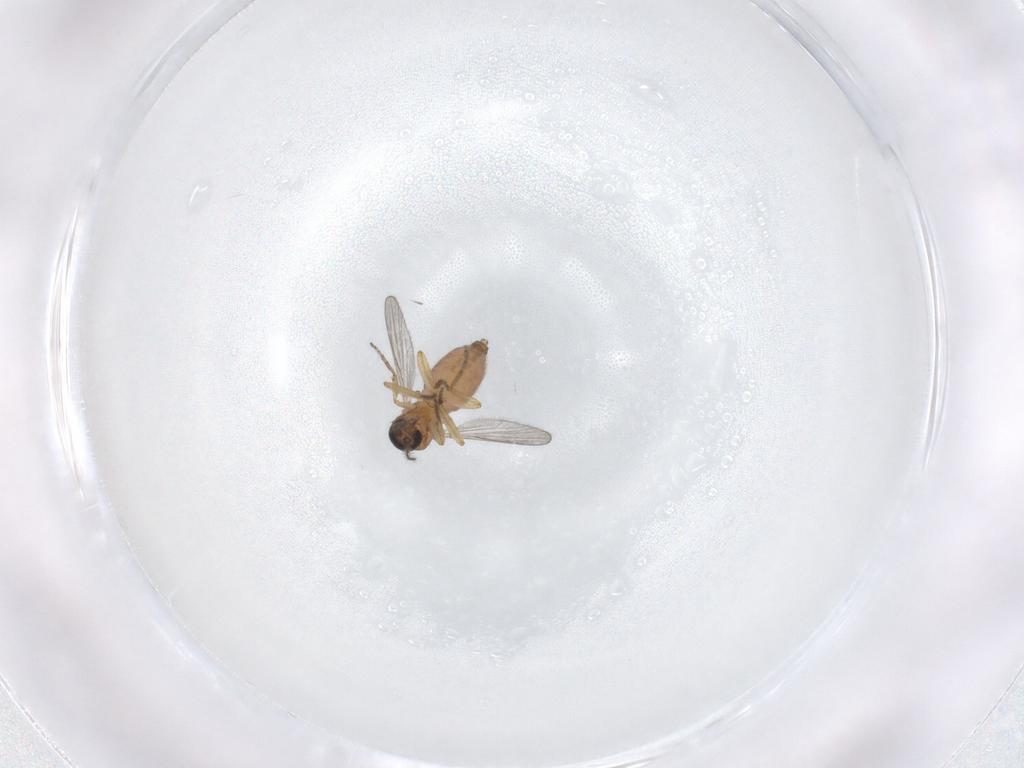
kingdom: Animalia
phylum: Arthropoda
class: Insecta
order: Diptera
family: Ceratopogonidae
